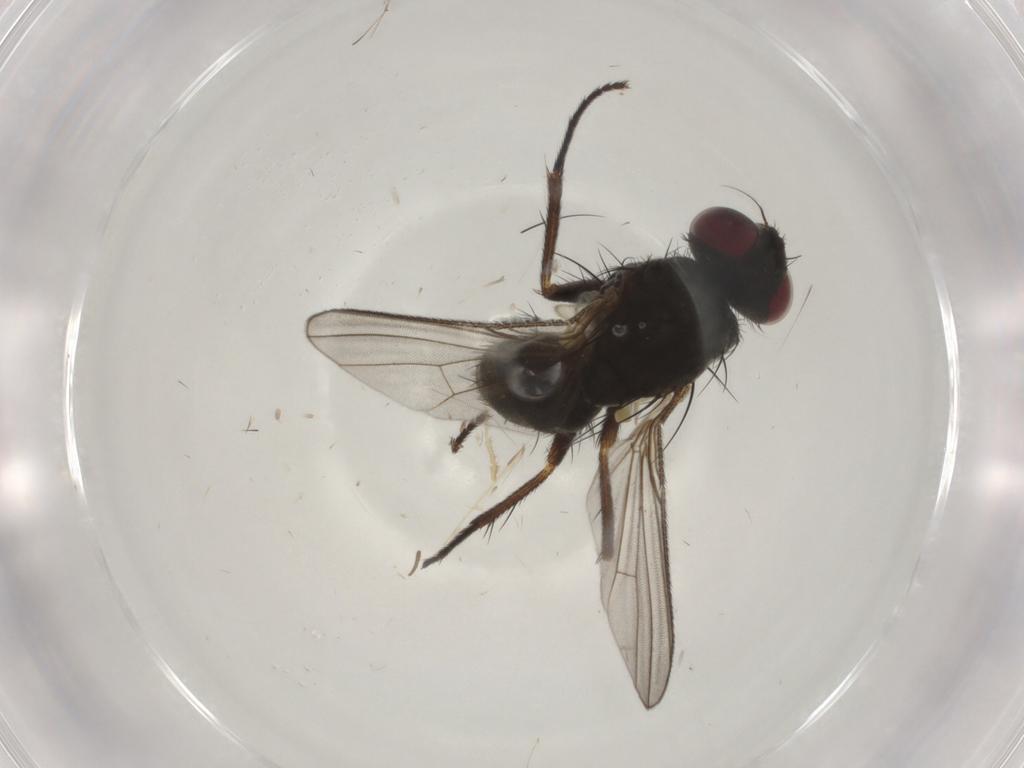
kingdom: Animalia
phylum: Arthropoda
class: Insecta
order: Diptera
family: Muscidae
